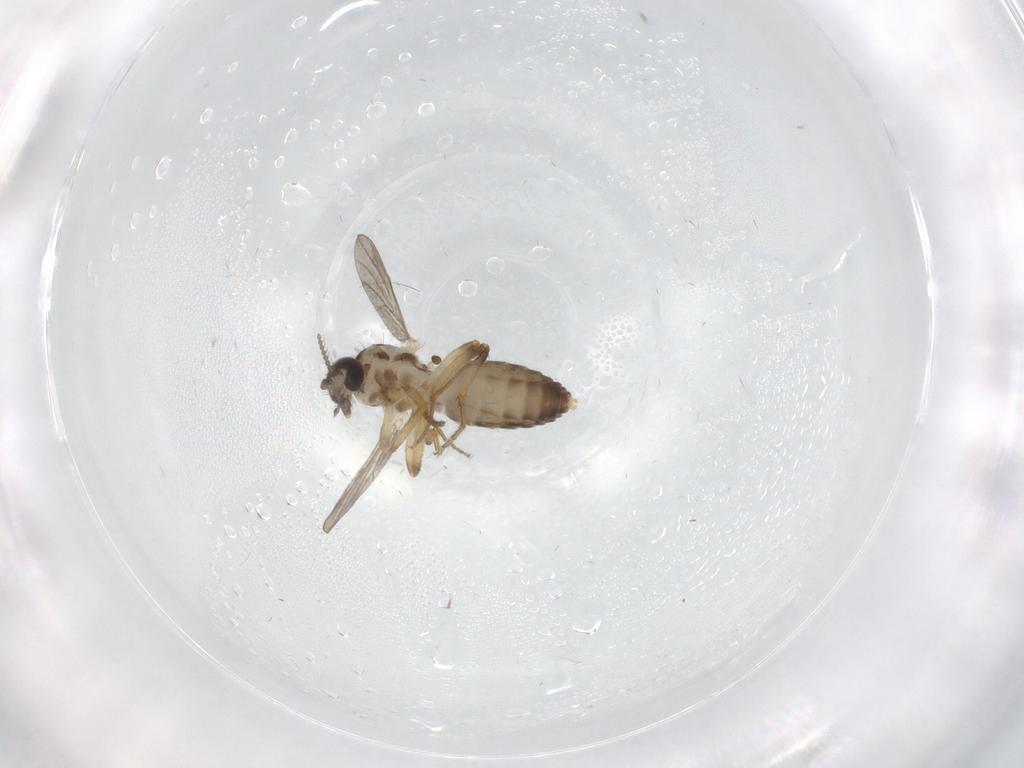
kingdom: Animalia
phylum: Arthropoda
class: Insecta
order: Diptera
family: Ceratopogonidae
